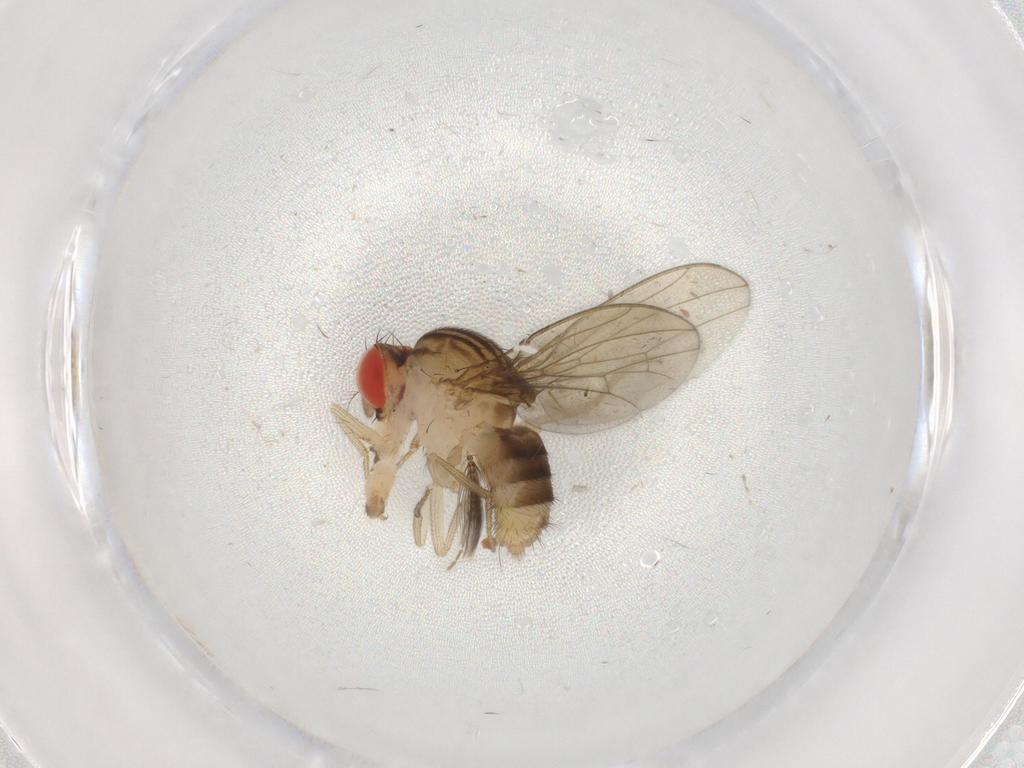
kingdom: Animalia
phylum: Arthropoda
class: Insecta
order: Diptera
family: Drosophilidae
